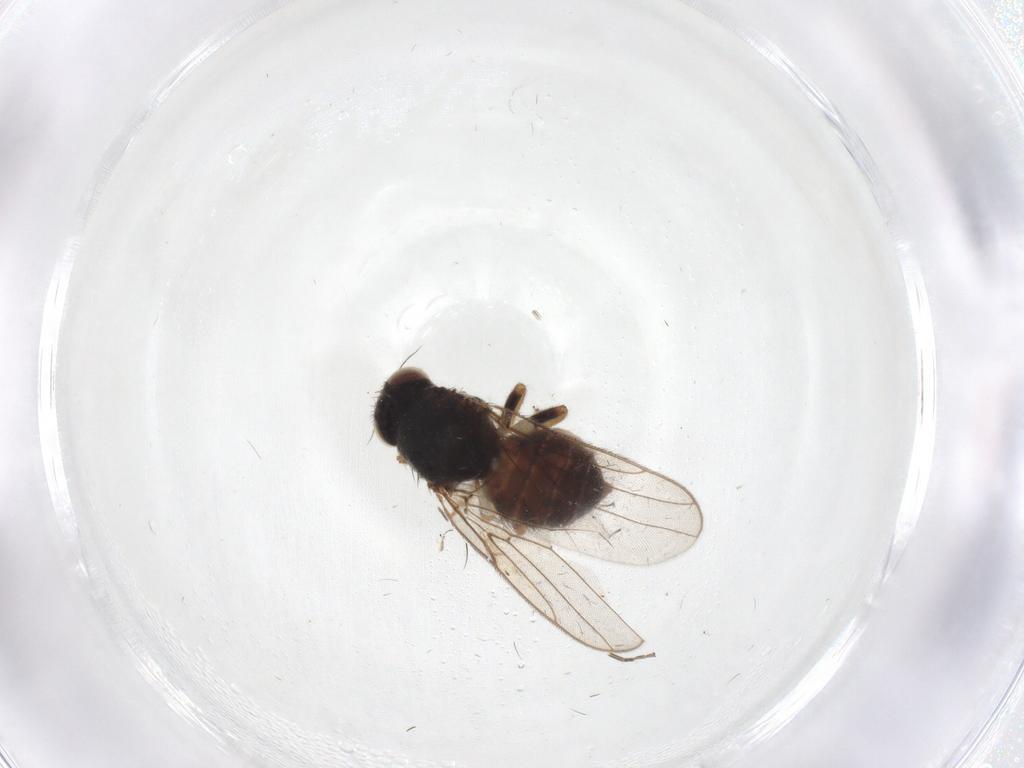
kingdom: Animalia
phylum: Arthropoda
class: Insecta
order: Diptera
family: Chloropidae
